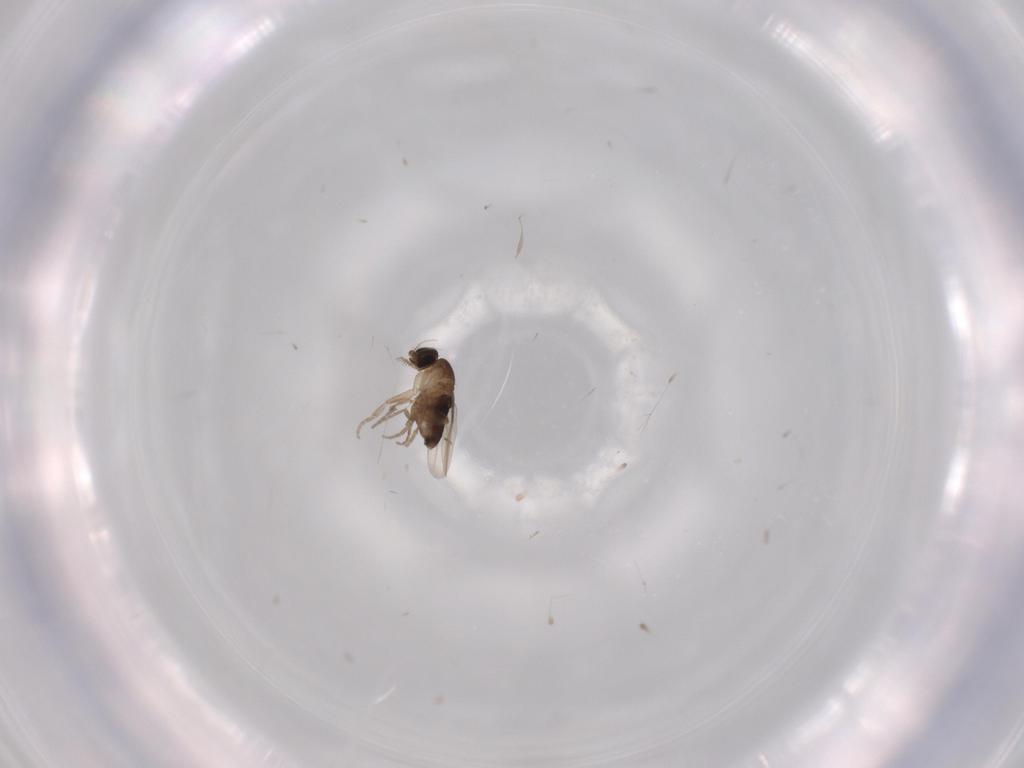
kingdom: Animalia
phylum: Arthropoda
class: Insecta
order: Diptera
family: Phoridae
